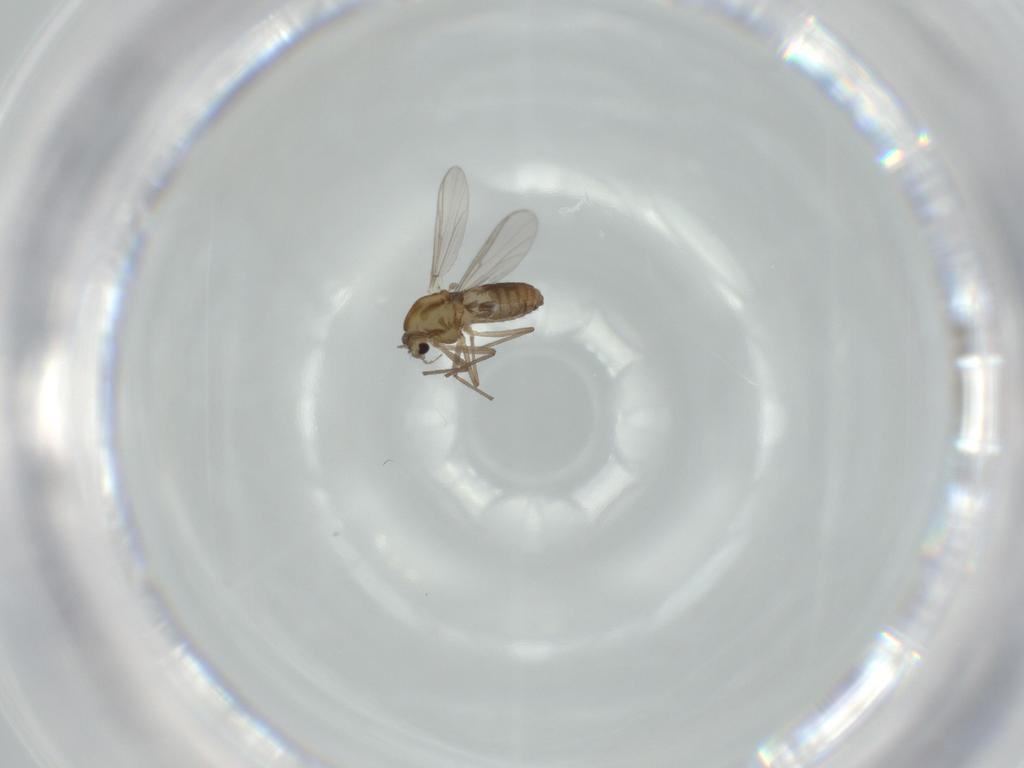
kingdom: Animalia
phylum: Arthropoda
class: Insecta
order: Diptera
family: Chironomidae
